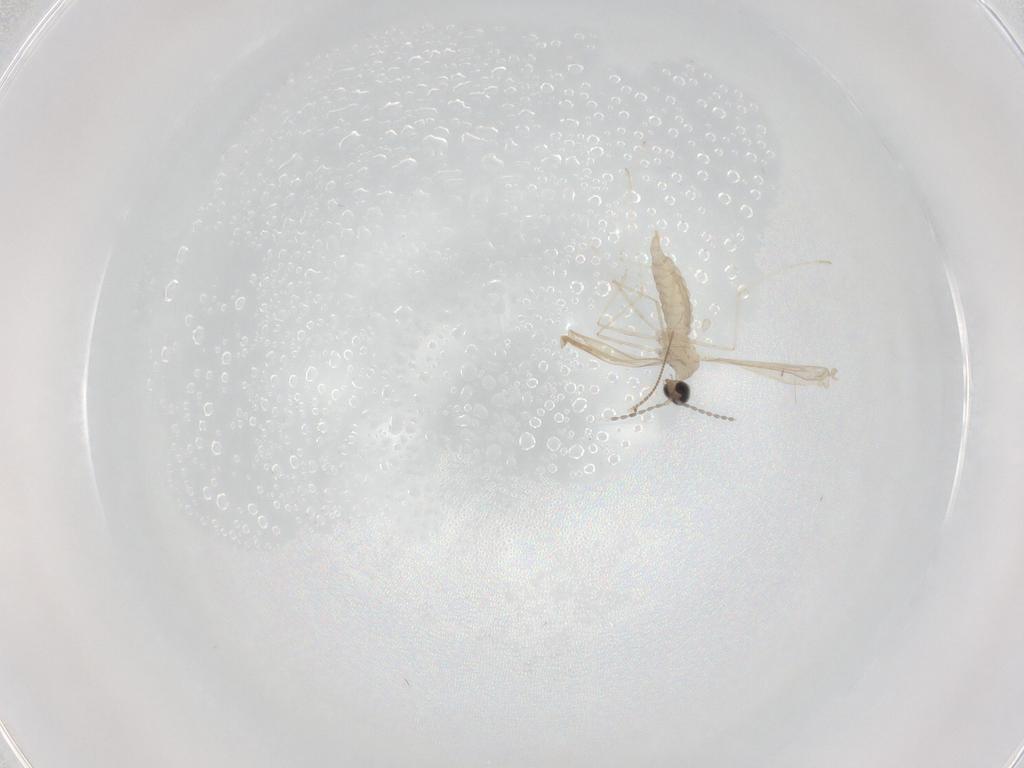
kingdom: Animalia
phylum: Arthropoda
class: Insecta
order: Diptera
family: Cecidomyiidae
